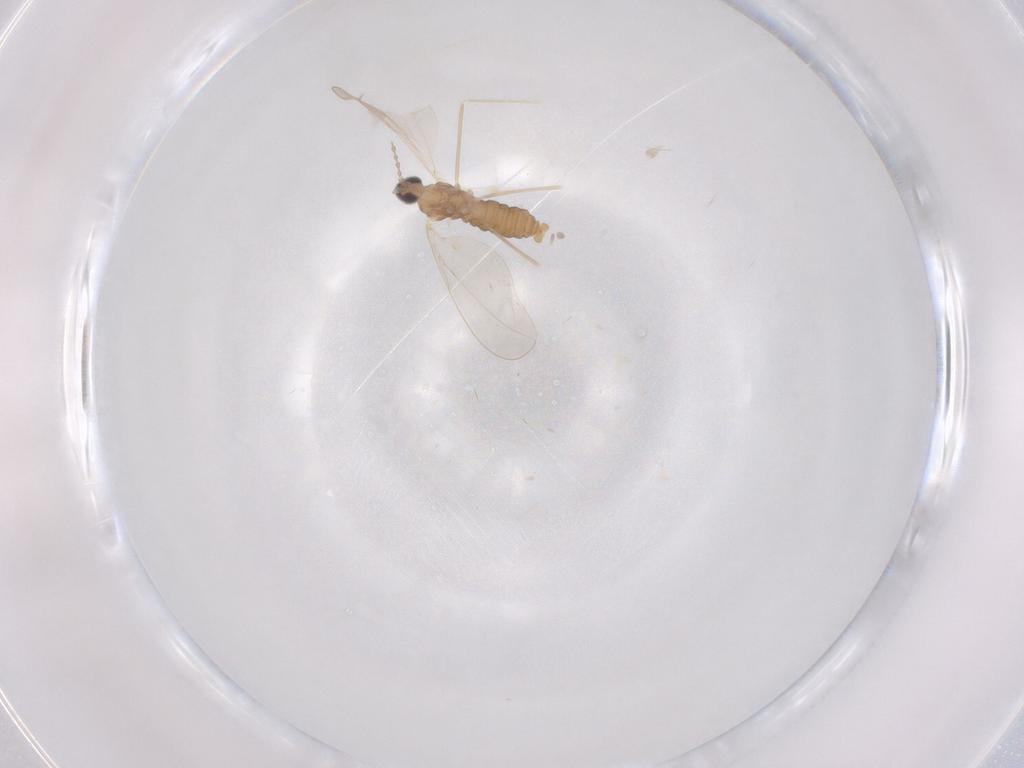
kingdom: Animalia
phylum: Arthropoda
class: Insecta
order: Diptera
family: Cecidomyiidae
